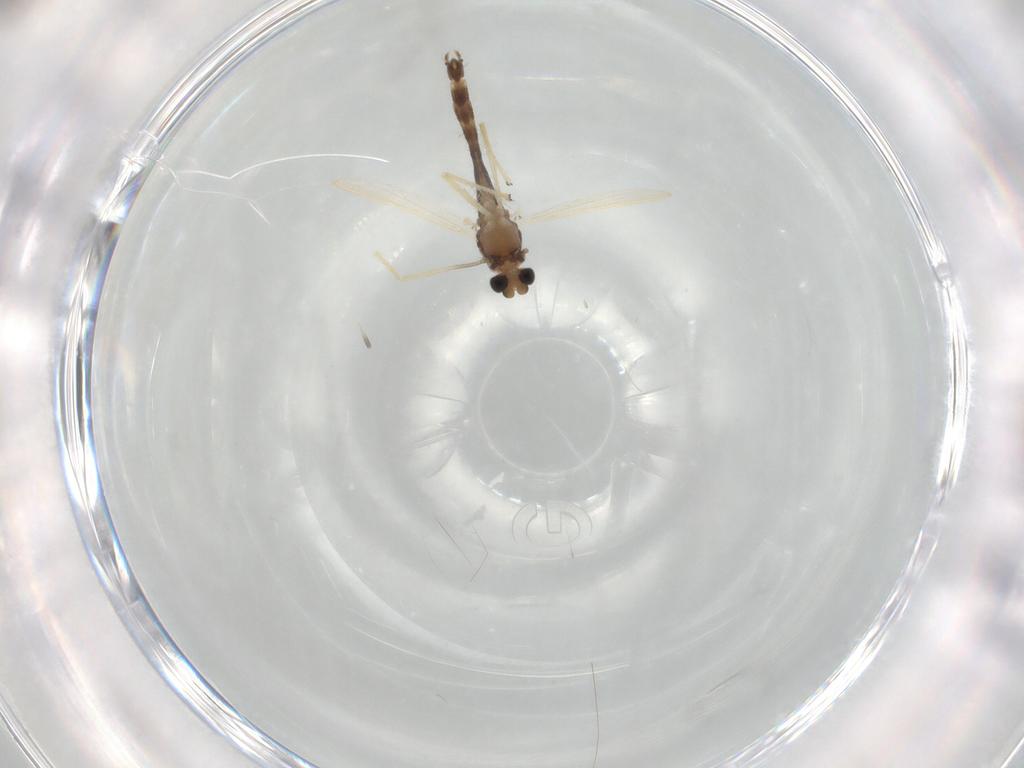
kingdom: Animalia
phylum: Arthropoda
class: Insecta
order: Diptera
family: Chironomidae
